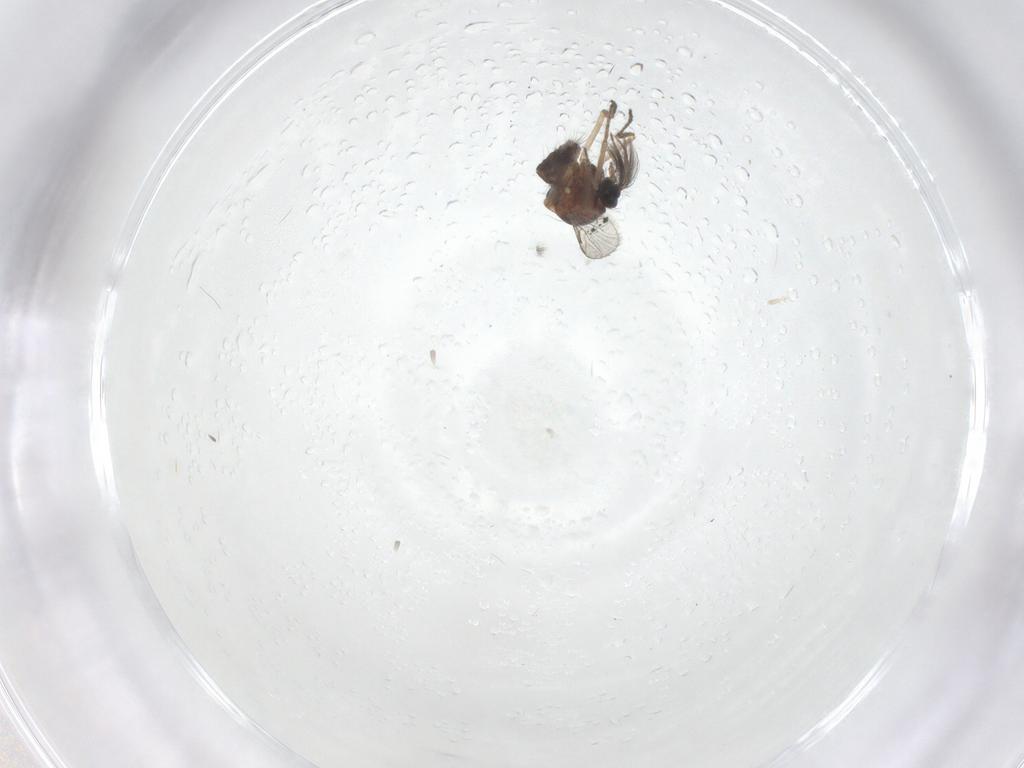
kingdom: Animalia
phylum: Arthropoda
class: Insecta
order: Diptera
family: Ceratopogonidae
